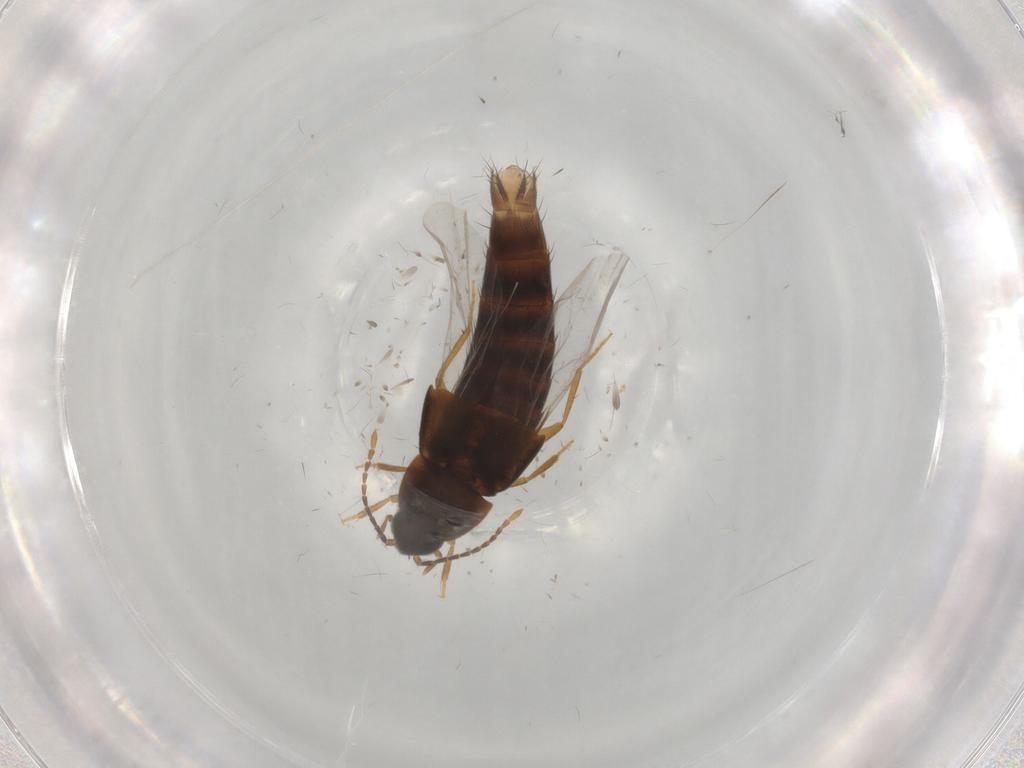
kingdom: Animalia
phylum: Arthropoda
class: Insecta
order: Coleoptera
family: Staphylinidae
